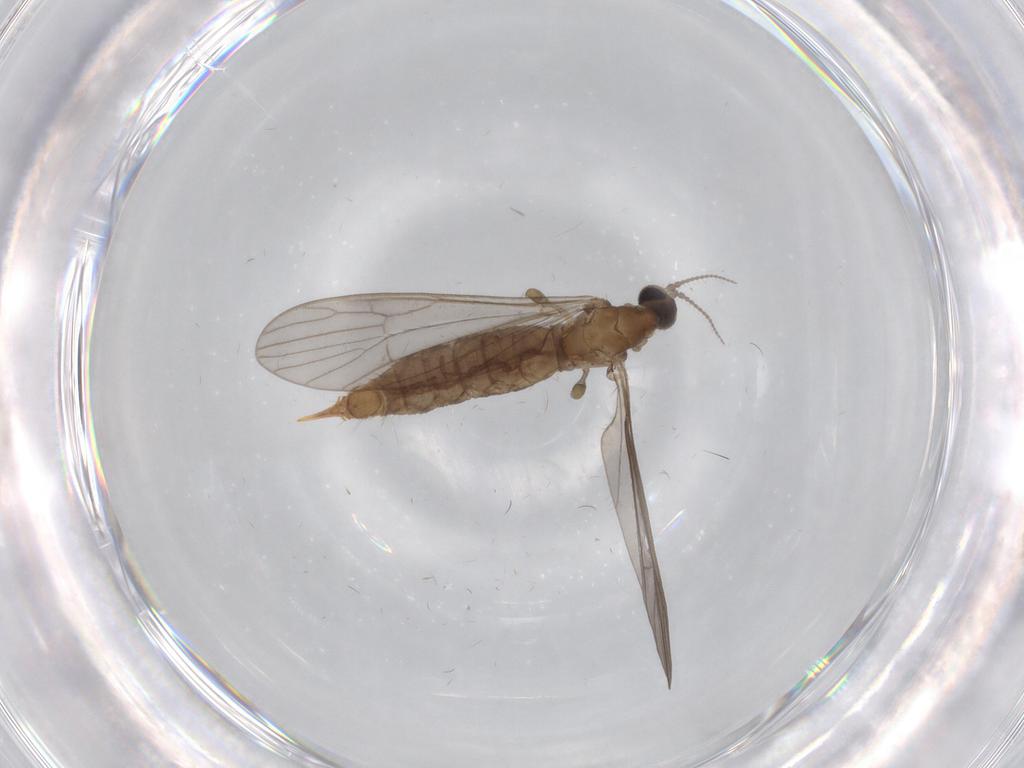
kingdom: Animalia
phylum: Arthropoda
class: Insecta
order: Diptera
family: Limoniidae
